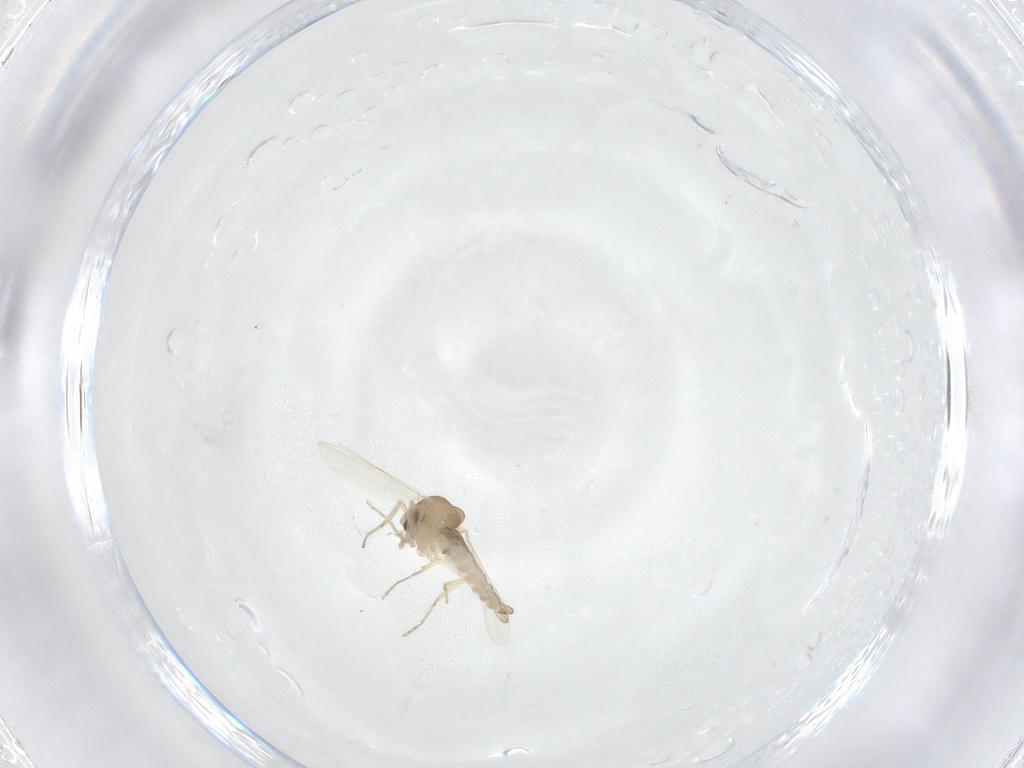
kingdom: Animalia
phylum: Arthropoda
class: Insecta
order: Diptera
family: Ceratopogonidae
